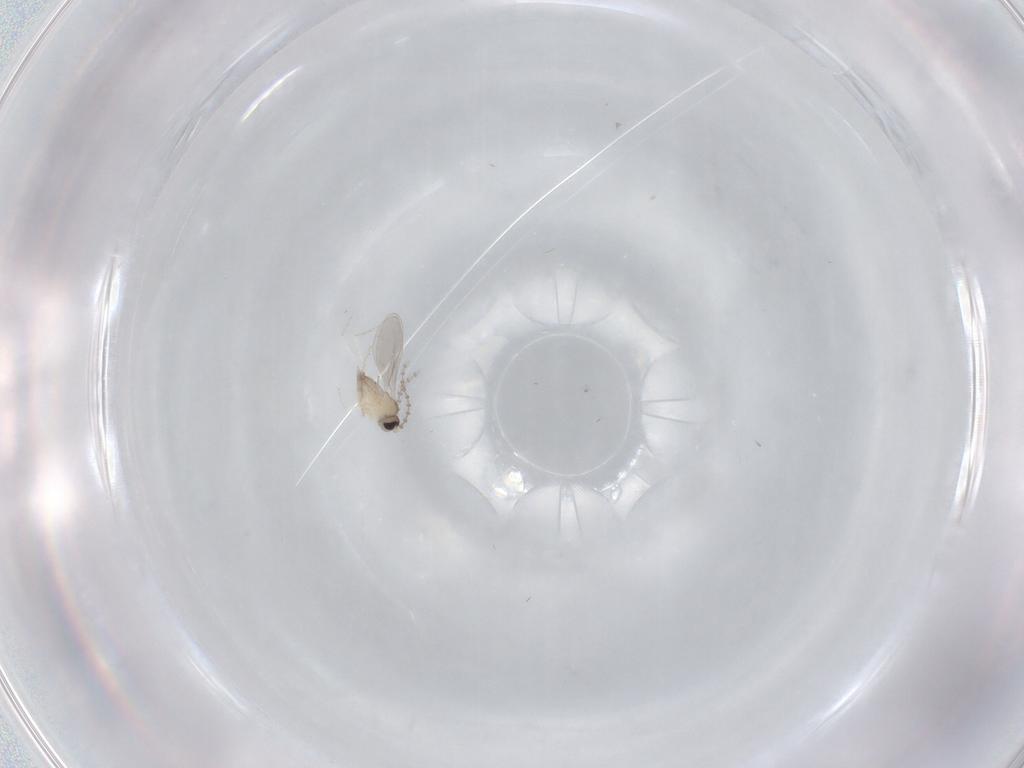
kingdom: Animalia
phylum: Arthropoda
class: Insecta
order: Diptera
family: Cecidomyiidae
